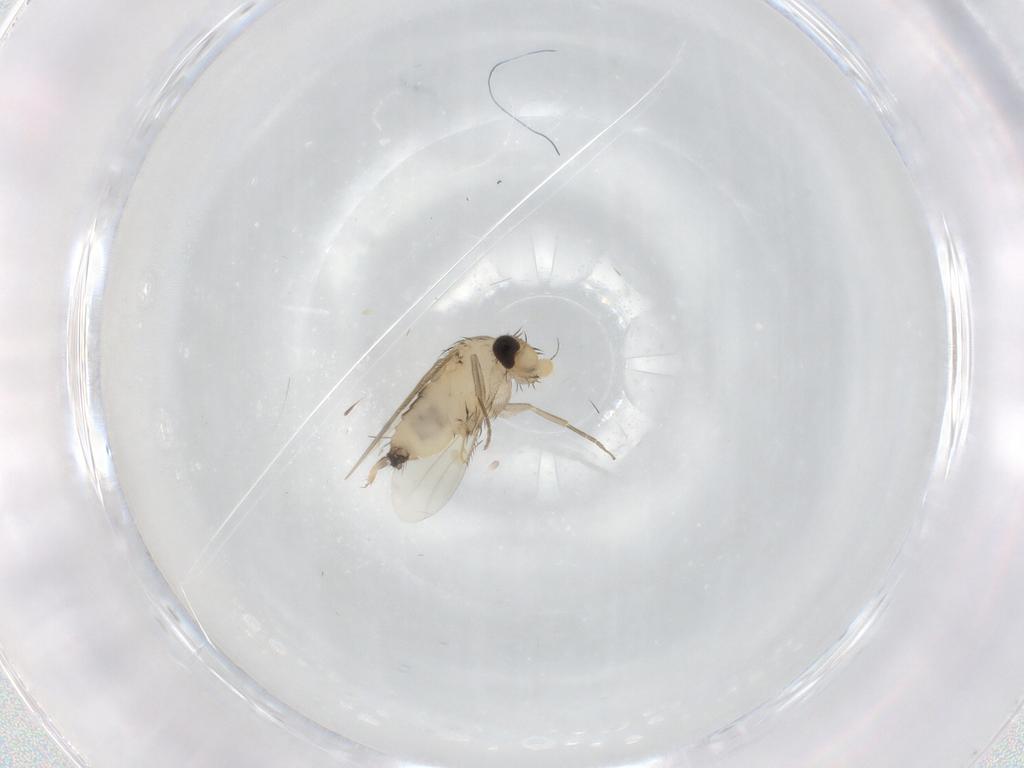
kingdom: Animalia
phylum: Arthropoda
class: Insecta
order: Diptera
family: Phoridae
